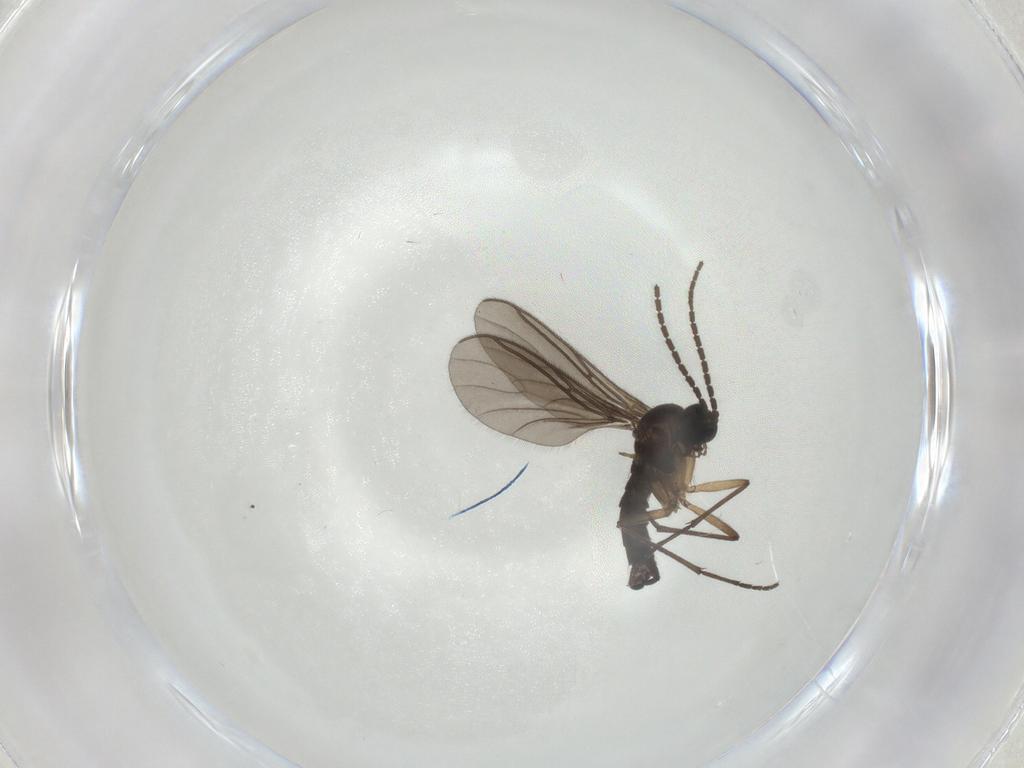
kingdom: Animalia
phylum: Arthropoda
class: Insecta
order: Diptera
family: Sciaridae
